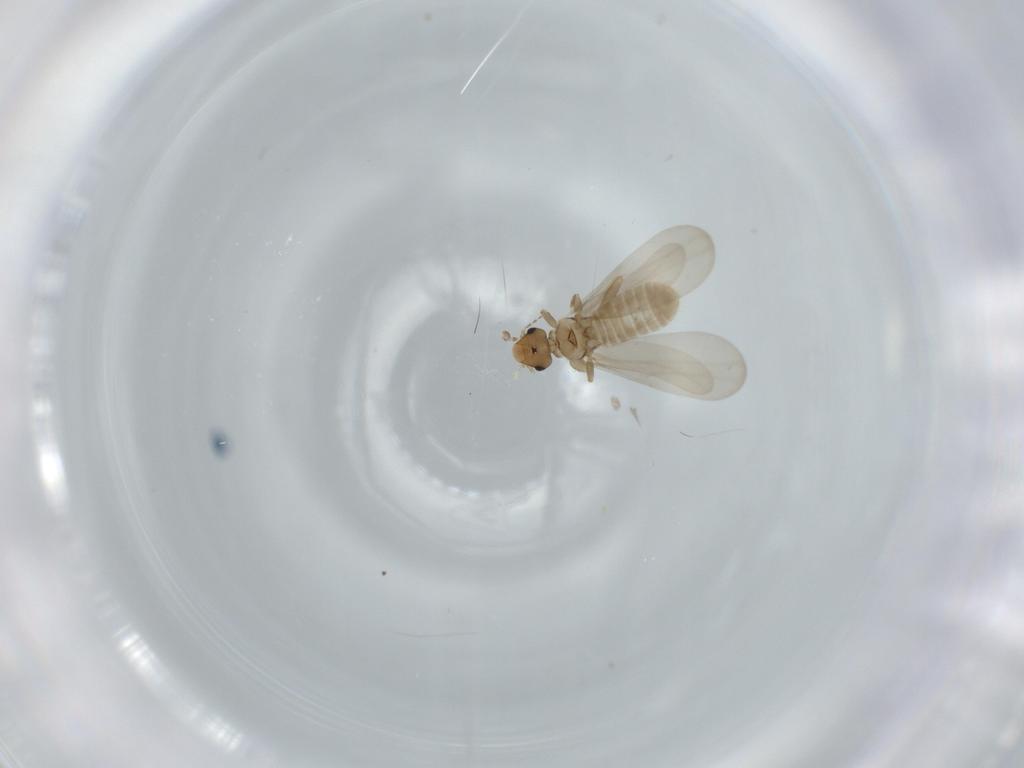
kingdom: Animalia
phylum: Arthropoda
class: Insecta
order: Psocodea
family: Liposcelididae
